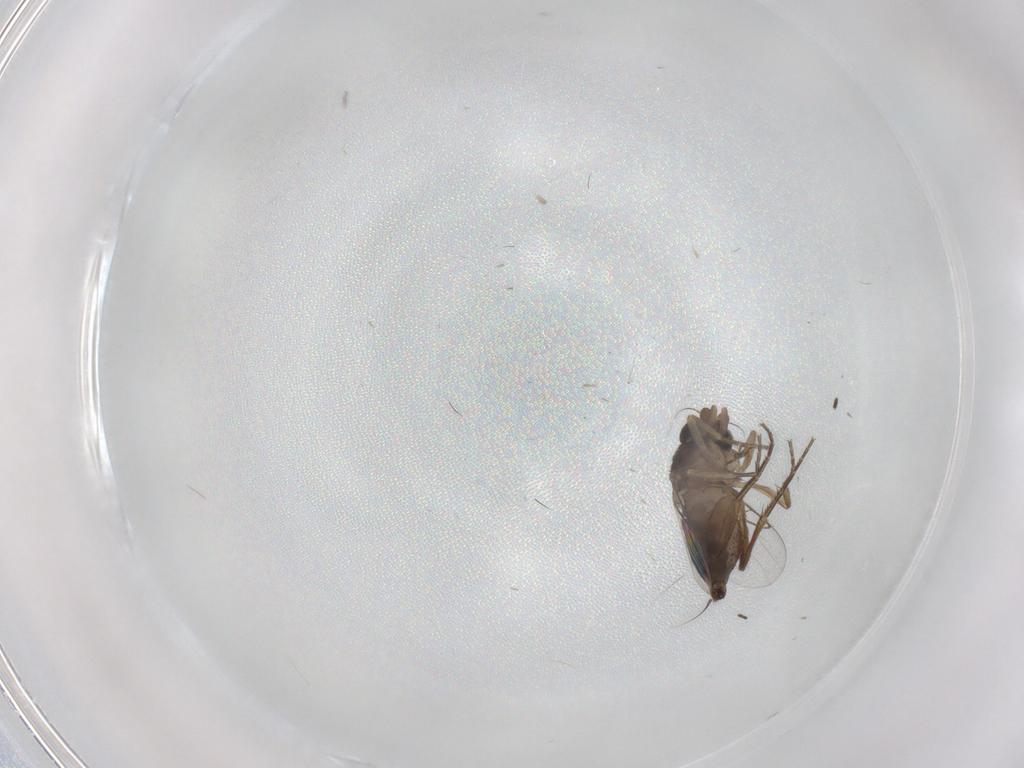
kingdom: Animalia
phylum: Arthropoda
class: Insecta
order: Diptera
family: Phoridae
